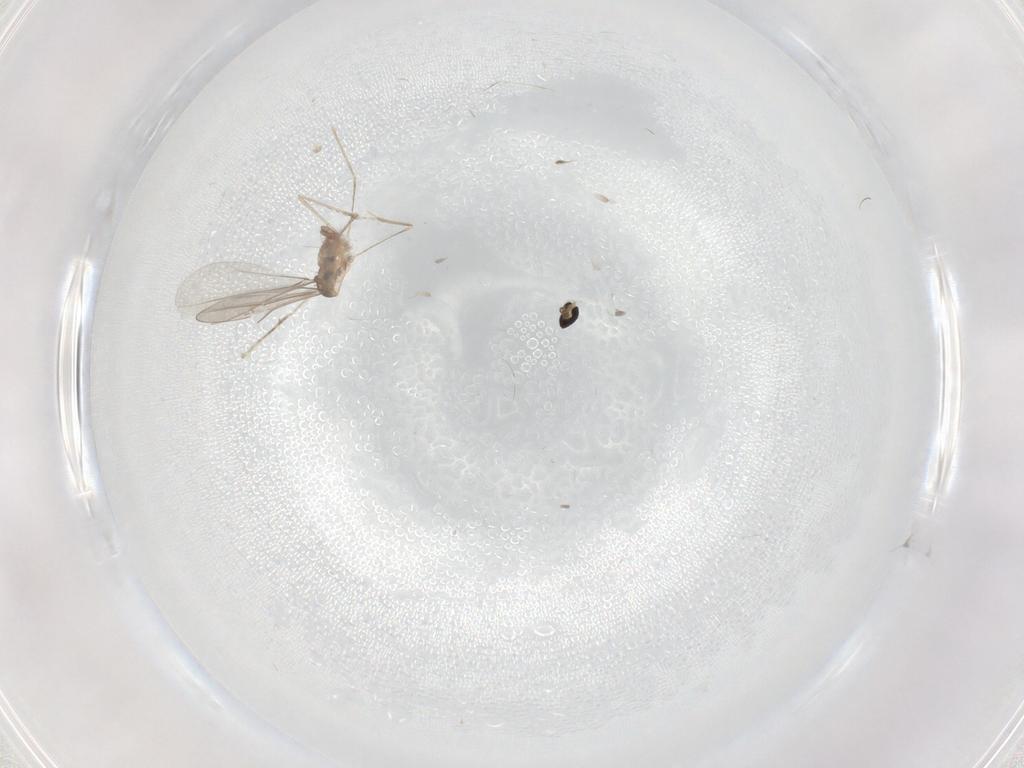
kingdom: Animalia
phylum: Arthropoda
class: Insecta
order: Diptera
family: Cecidomyiidae
